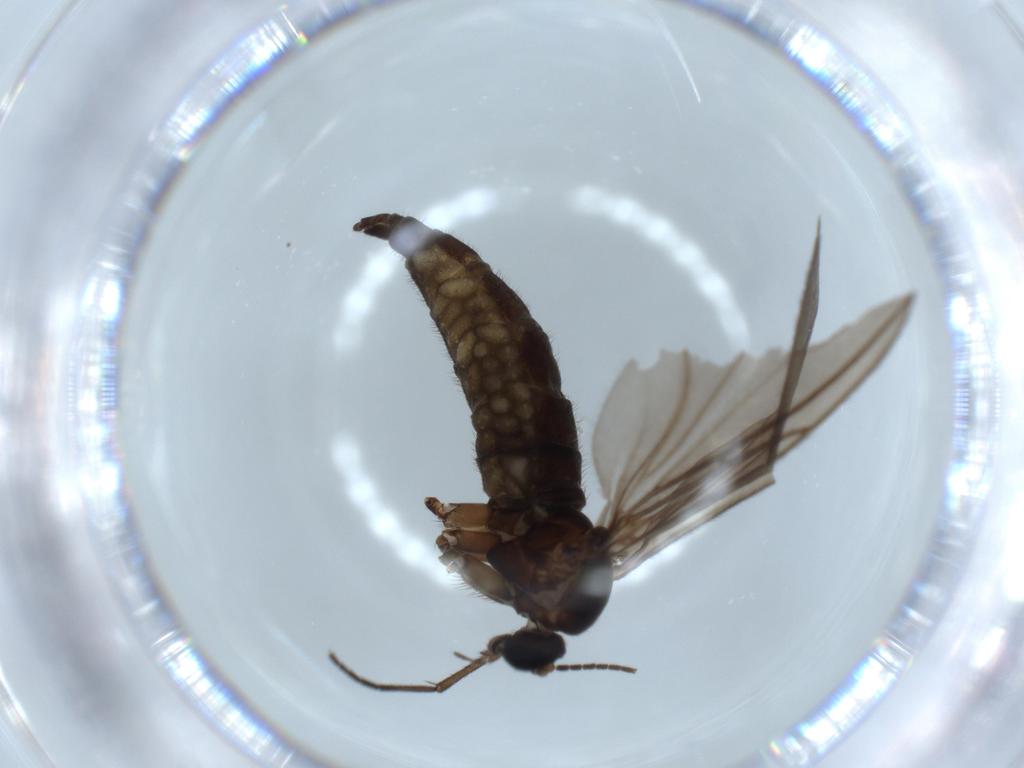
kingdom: Animalia
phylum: Arthropoda
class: Insecta
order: Diptera
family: Sciaridae
